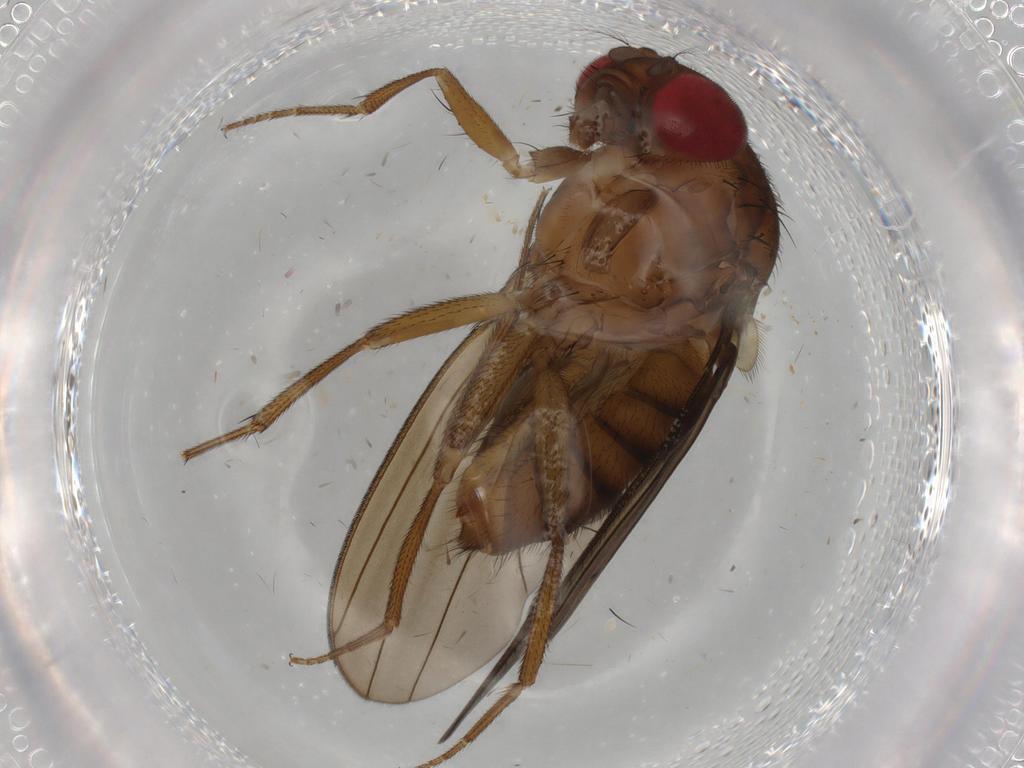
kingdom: Animalia
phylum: Arthropoda
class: Insecta
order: Diptera
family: Drosophilidae
